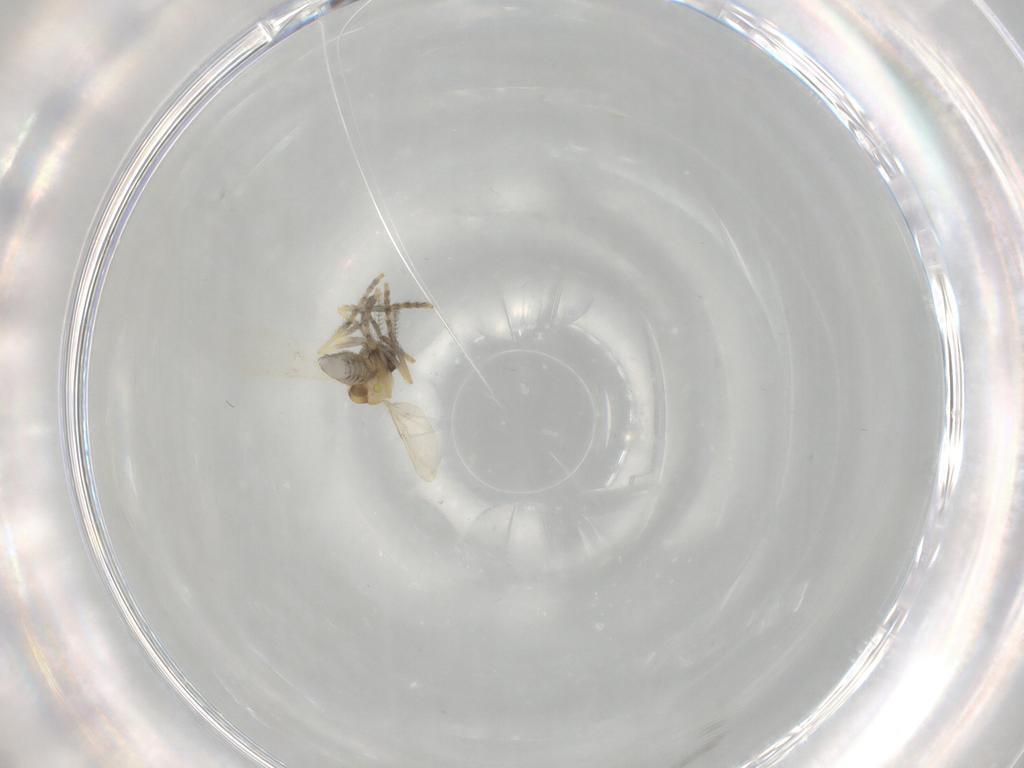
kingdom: Animalia
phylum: Arthropoda
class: Insecta
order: Diptera
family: Ceratopogonidae
